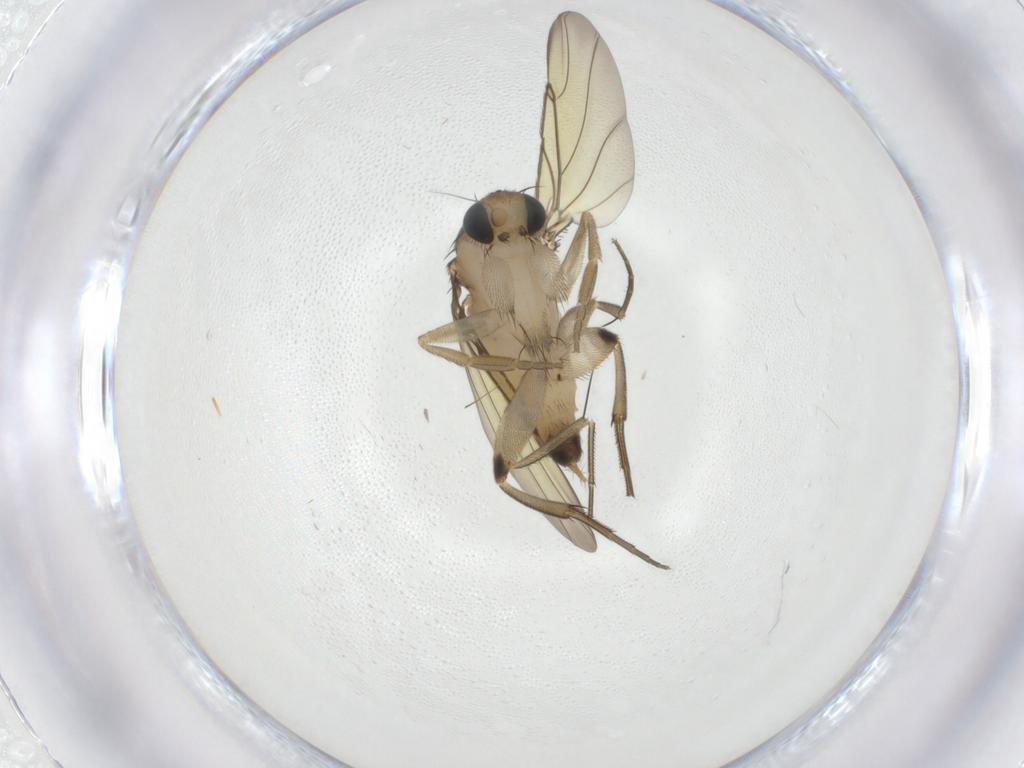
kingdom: Animalia
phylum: Arthropoda
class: Insecta
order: Diptera
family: Phoridae
